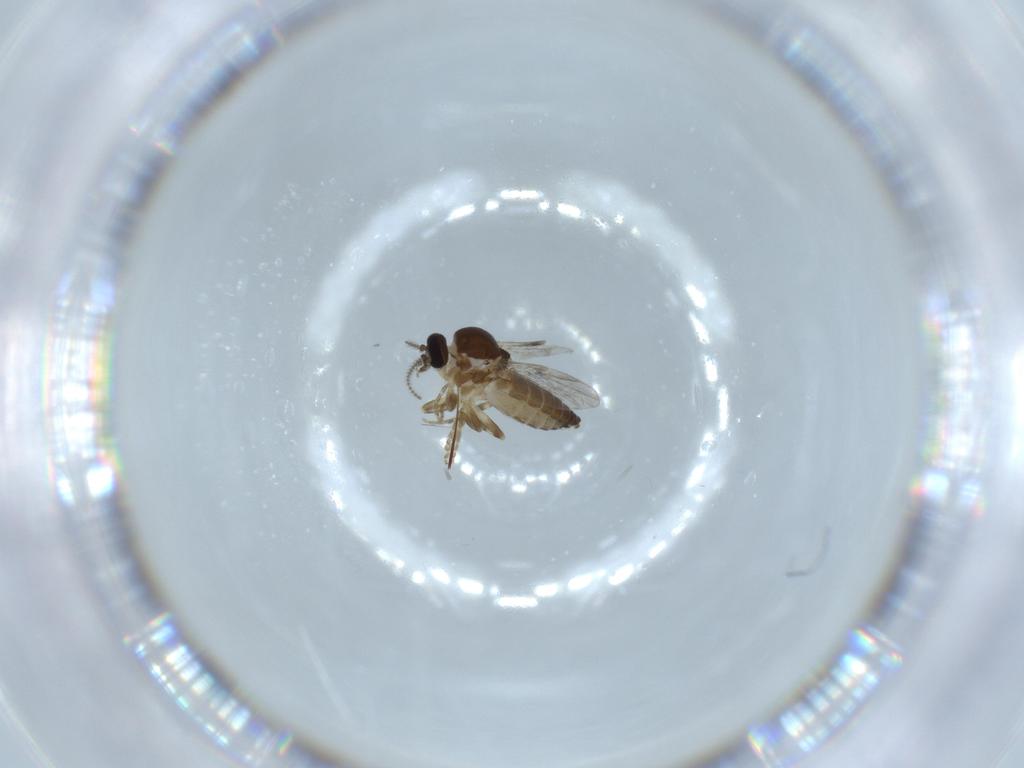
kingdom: Animalia
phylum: Arthropoda
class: Insecta
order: Diptera
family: Ceratopogonidae
